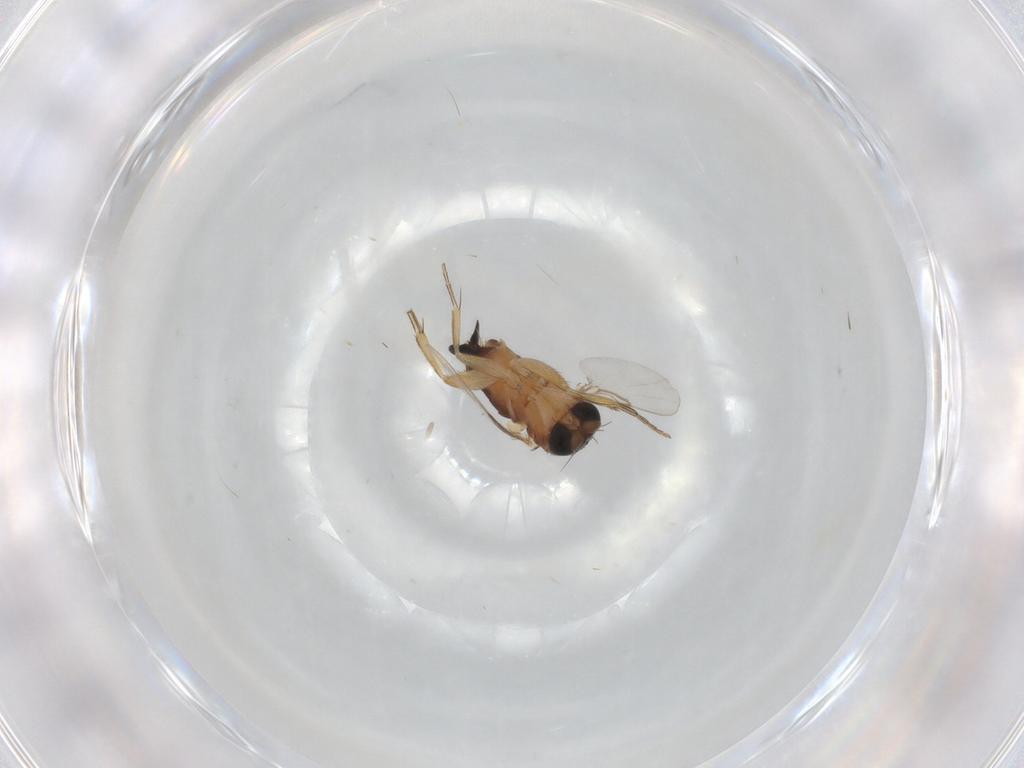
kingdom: Animalia
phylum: Arthropoda
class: Insecta
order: Diptera
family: Phoridae
